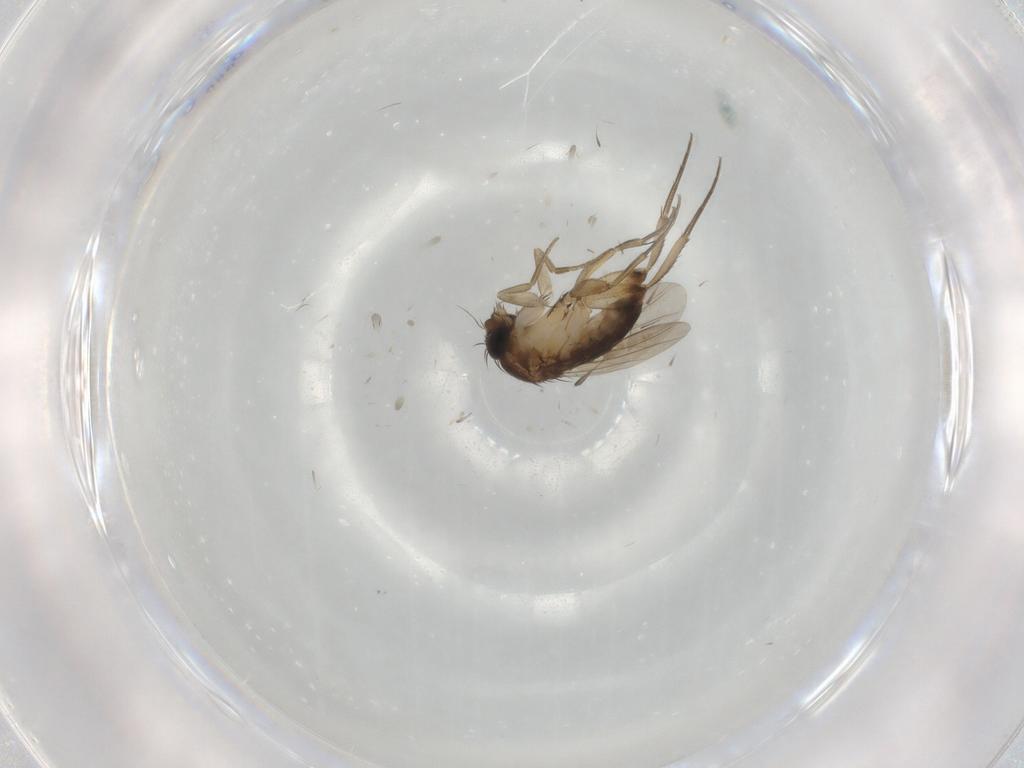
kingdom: Animalia
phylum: Arthropoda
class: Insecta
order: Diptera
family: Phoridae
